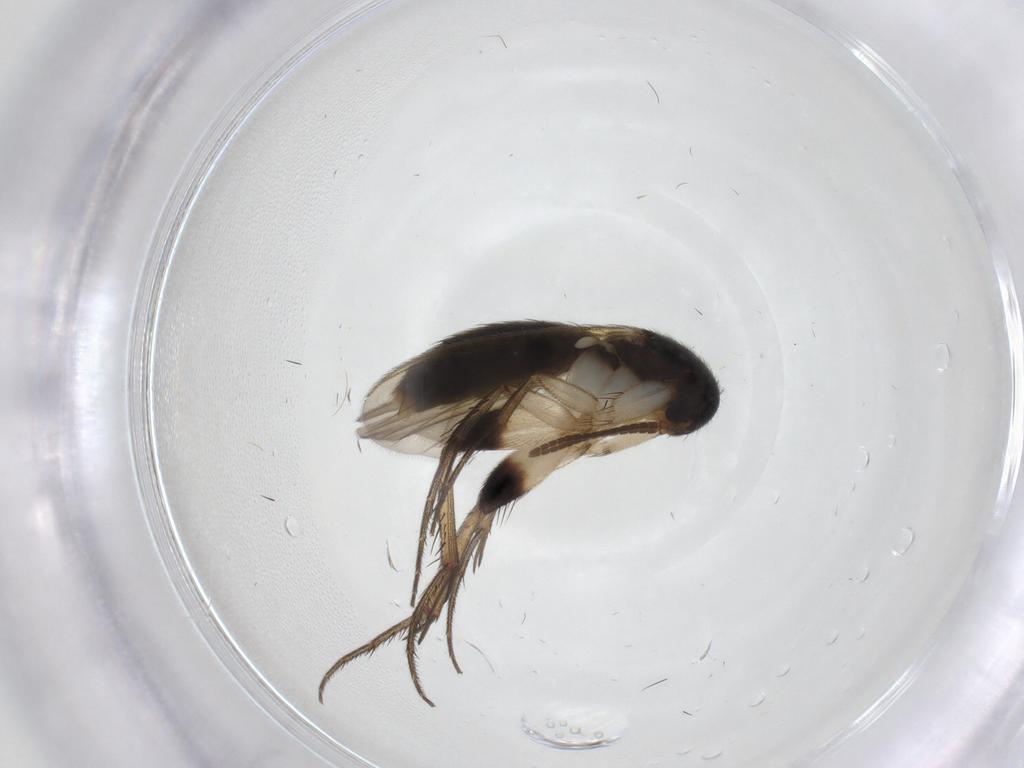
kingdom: Animalia
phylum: Arthropoda
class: Insecta
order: Diptera
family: Tabanidae
